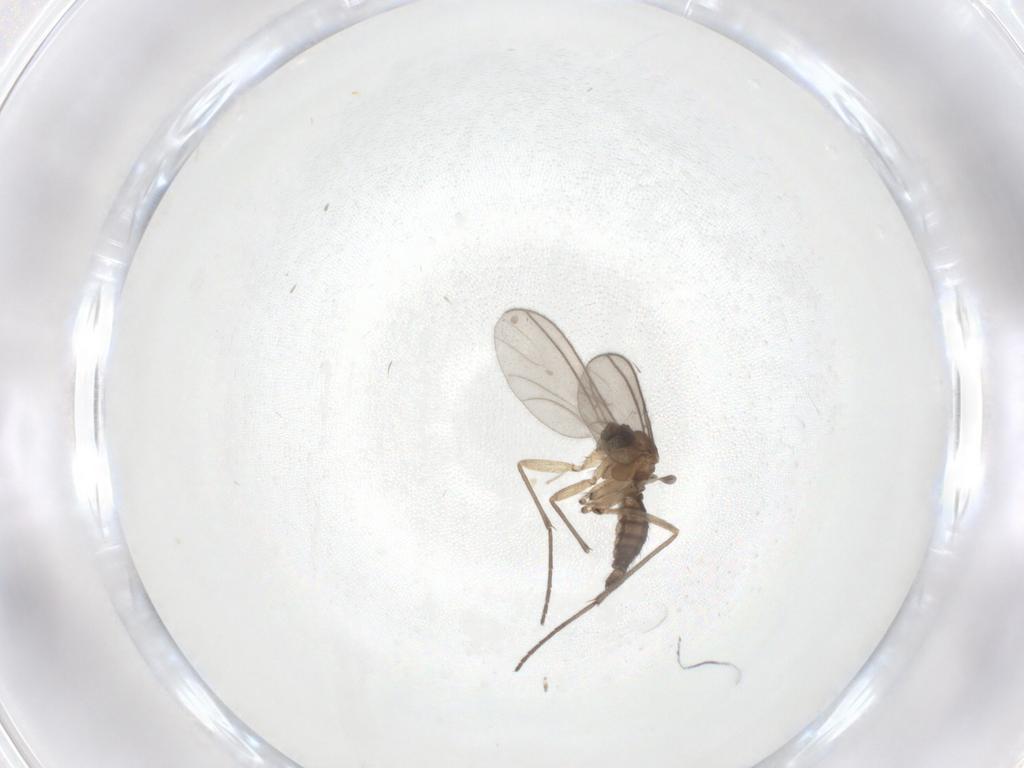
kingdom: Animalia
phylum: Arthropoda
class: Insecta
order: Diptera
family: Sciaridae
